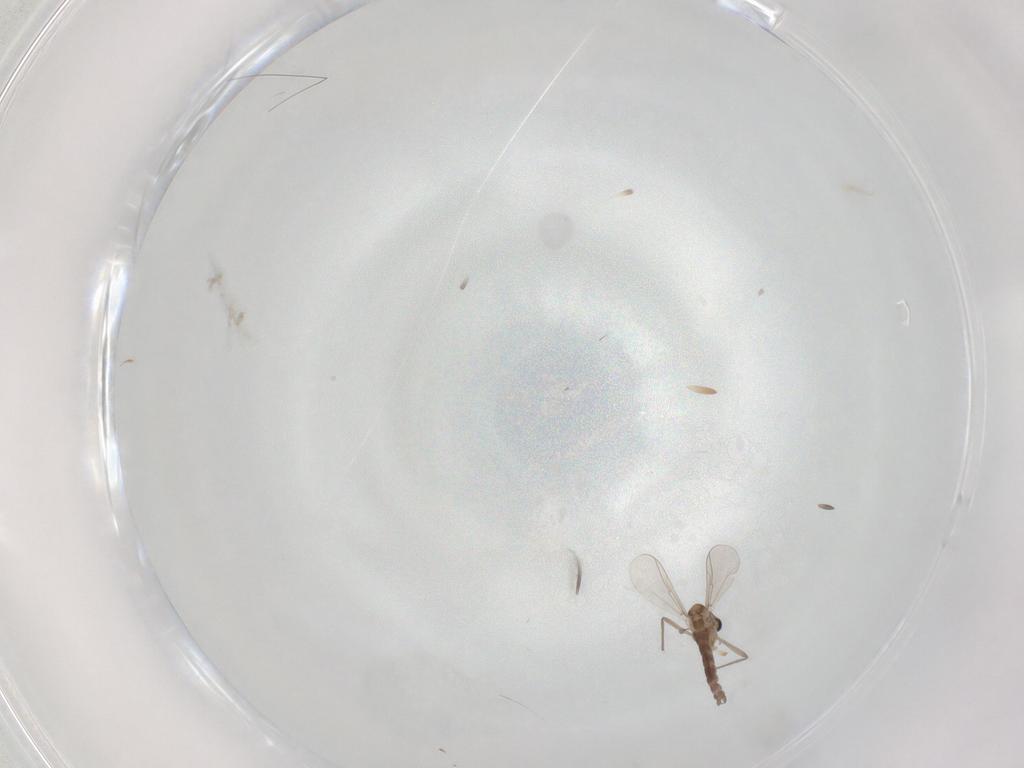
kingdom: Animalia
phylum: Arthropoda
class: Insecta
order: Diptera
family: Sciaridae
